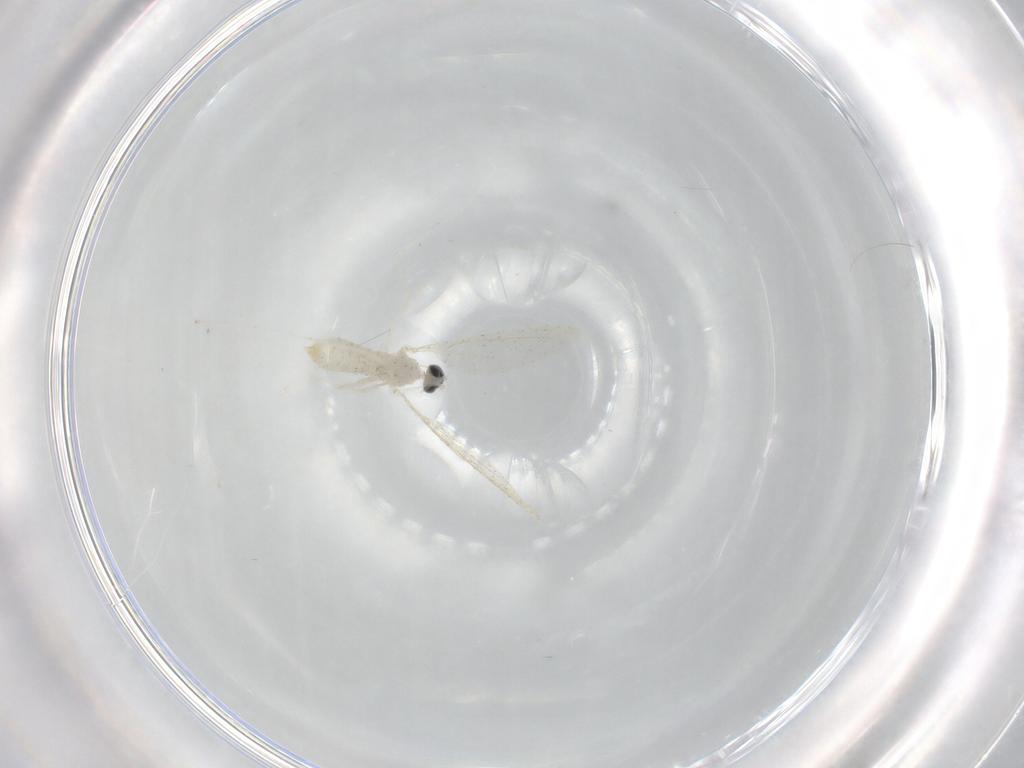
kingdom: Animalia
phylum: Arthropoda
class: Insecta
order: Diptera
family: Cecidomyiidae
